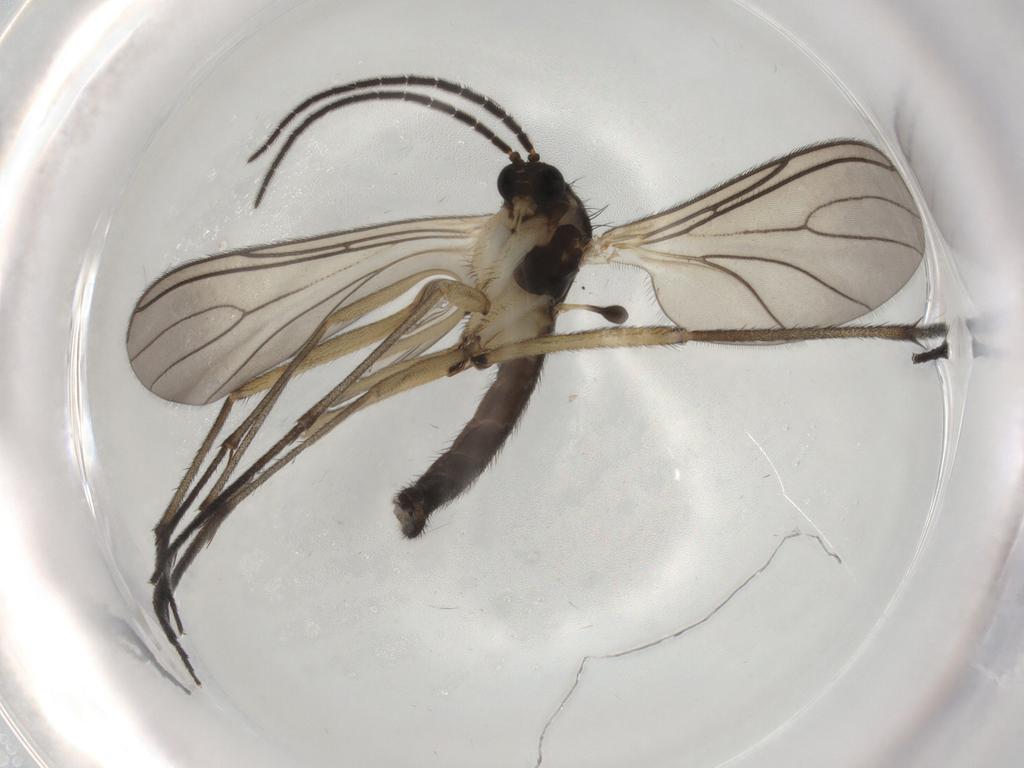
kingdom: Animalia
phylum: Arthropoda
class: Insecta
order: Diptera
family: Sciaridae
